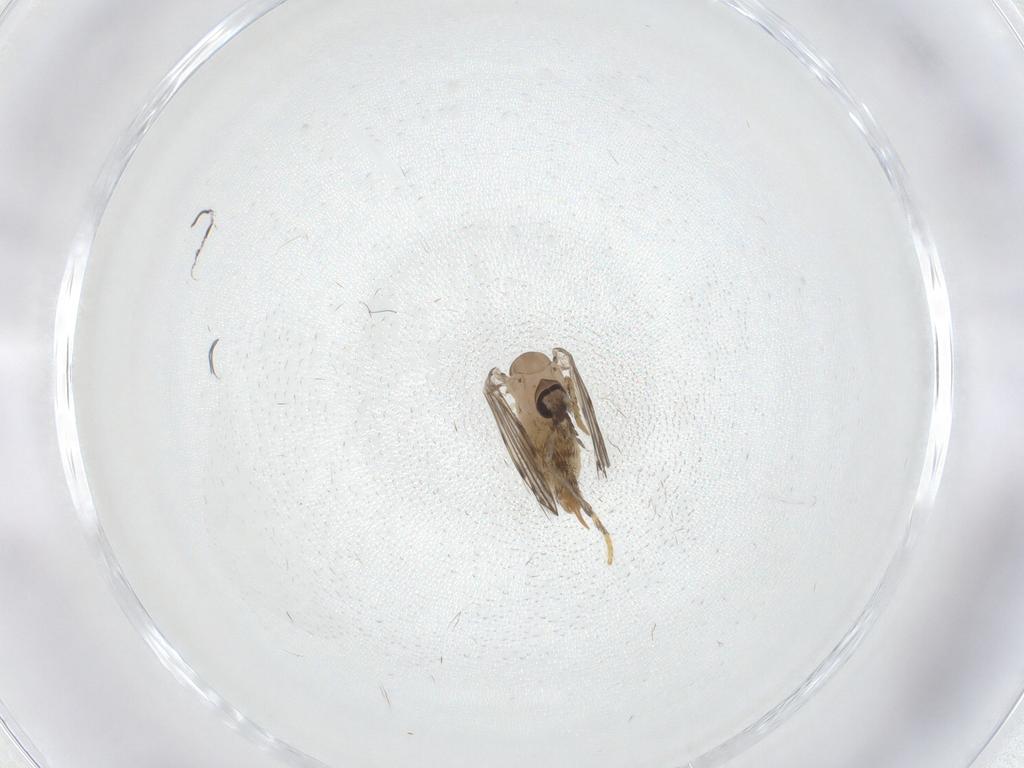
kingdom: Animalia
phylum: Arthropoda
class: Insecta
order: Diptera
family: Psychodidae
